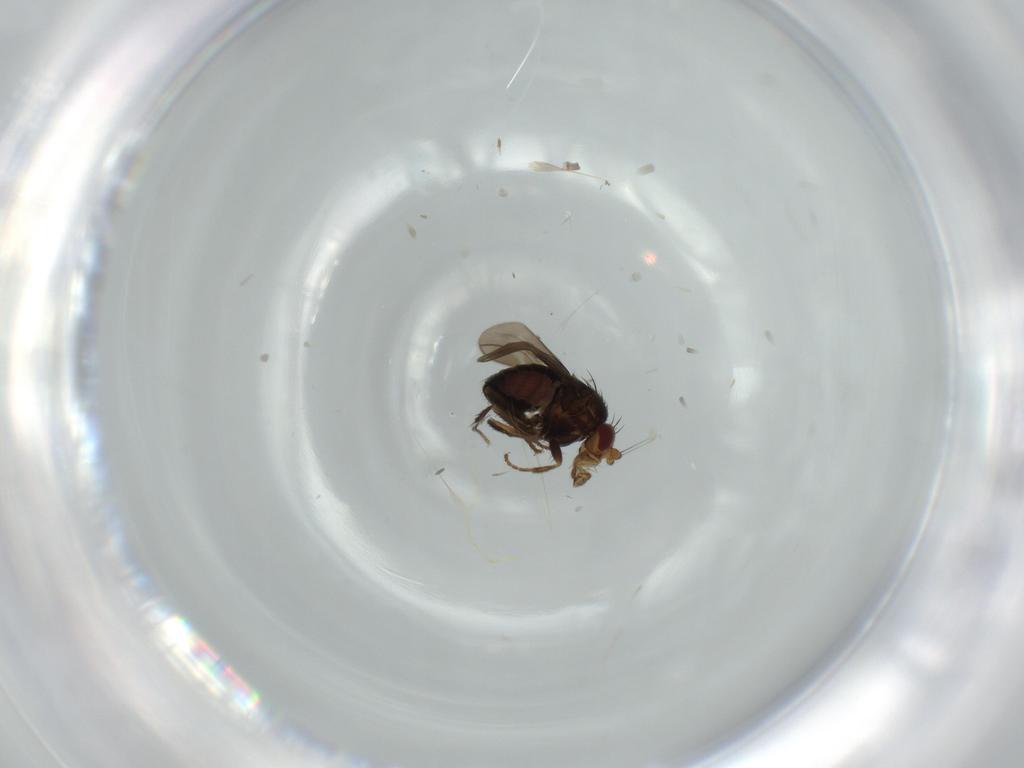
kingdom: Animalia
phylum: Arthropoda
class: Insecta
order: Diptera
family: Sphaeroceridae
